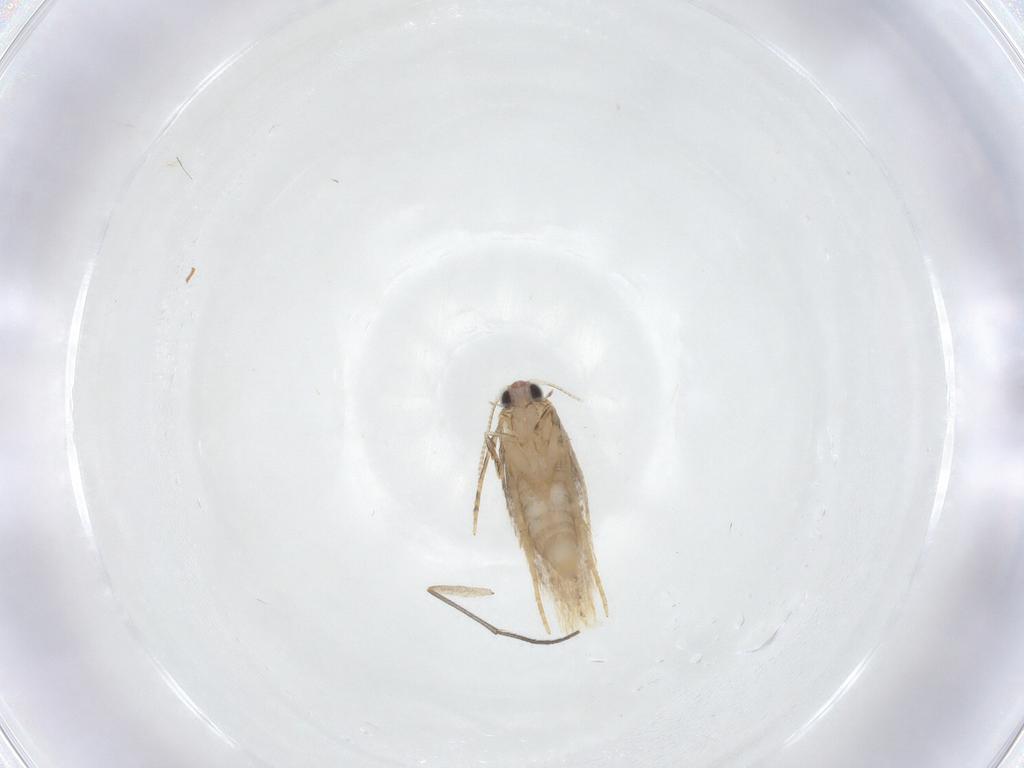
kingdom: Animalia
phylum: Arthropoda
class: Insecta
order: Lepidoptera
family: Tineidae
